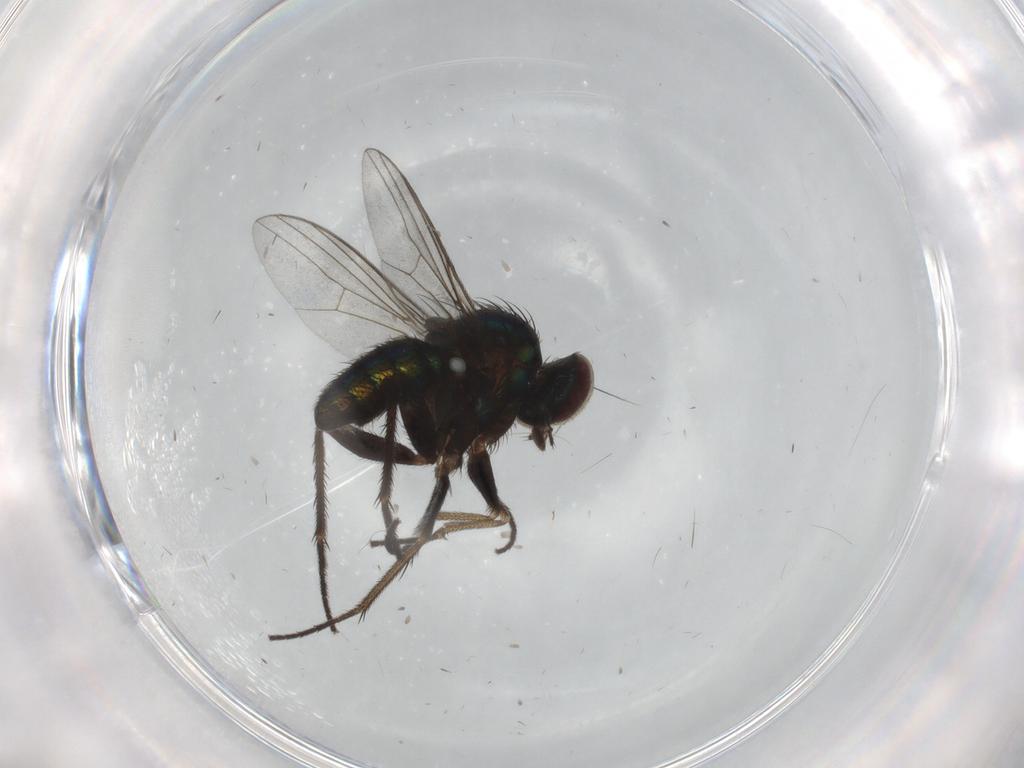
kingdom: Animalia
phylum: Arthropoda
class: Insecta
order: Diptera
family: Dolichopodidae
